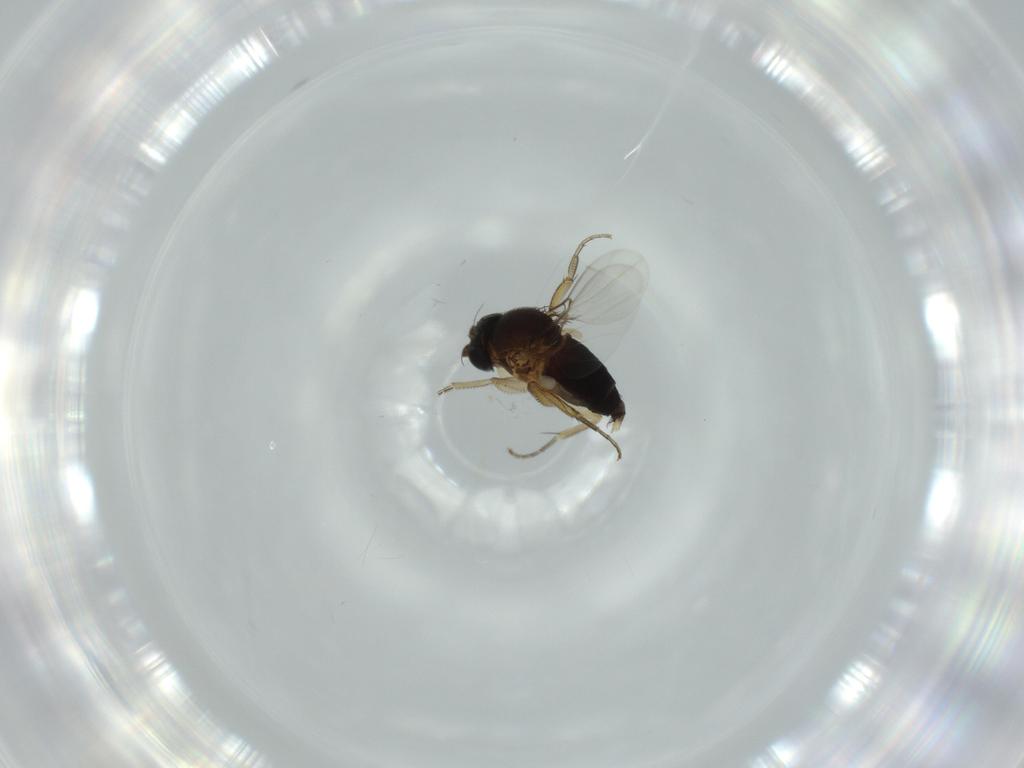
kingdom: Animalia
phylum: Arthropoda
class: Insecta
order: Diptera
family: Phoridae
